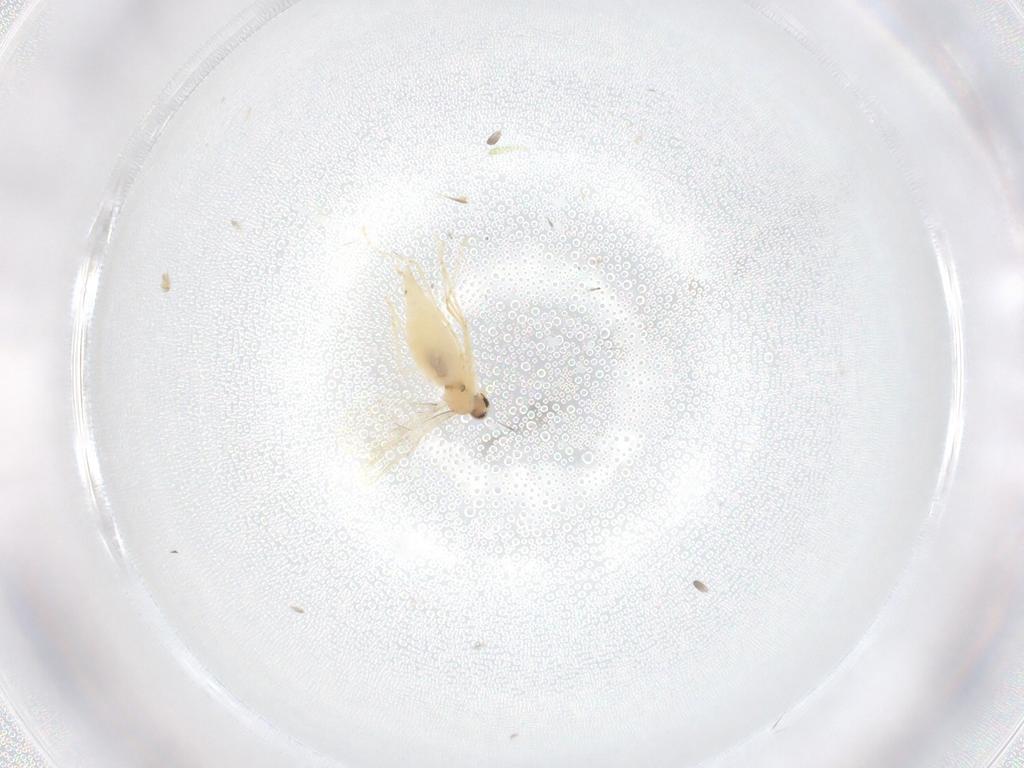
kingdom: Animalia
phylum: Arthropoda
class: Insecta
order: Diptera
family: Cecidomyiidae
